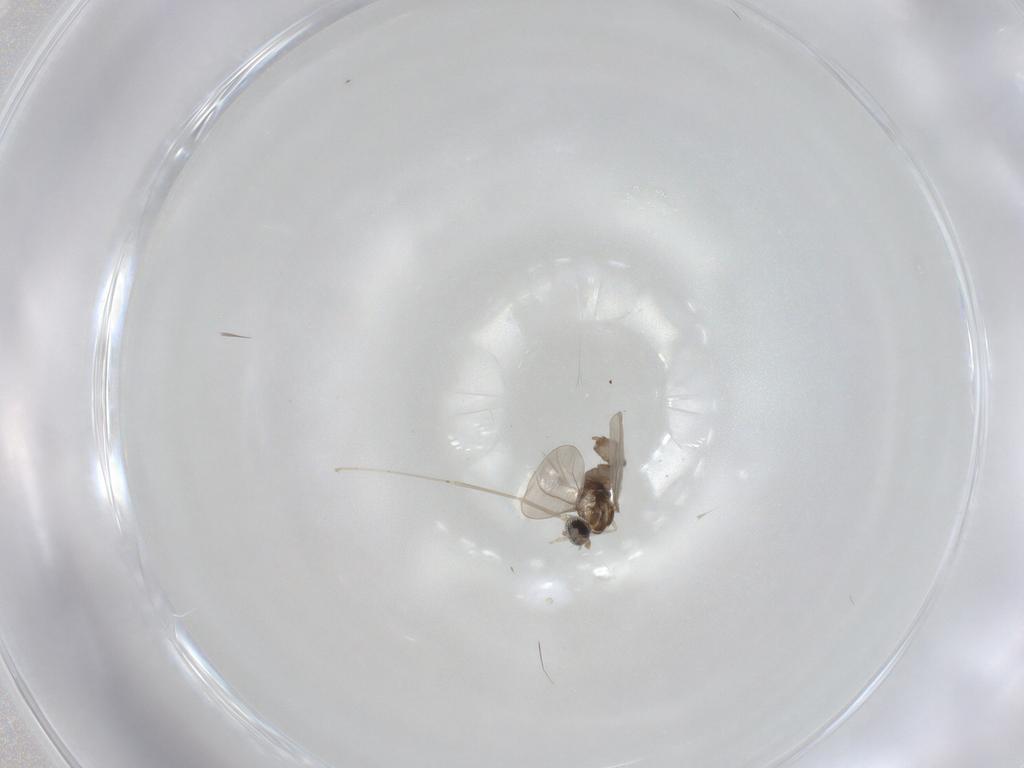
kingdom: Animalia
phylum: Arthropoda
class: Insecta
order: Diptera
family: Cecidomyiidae
